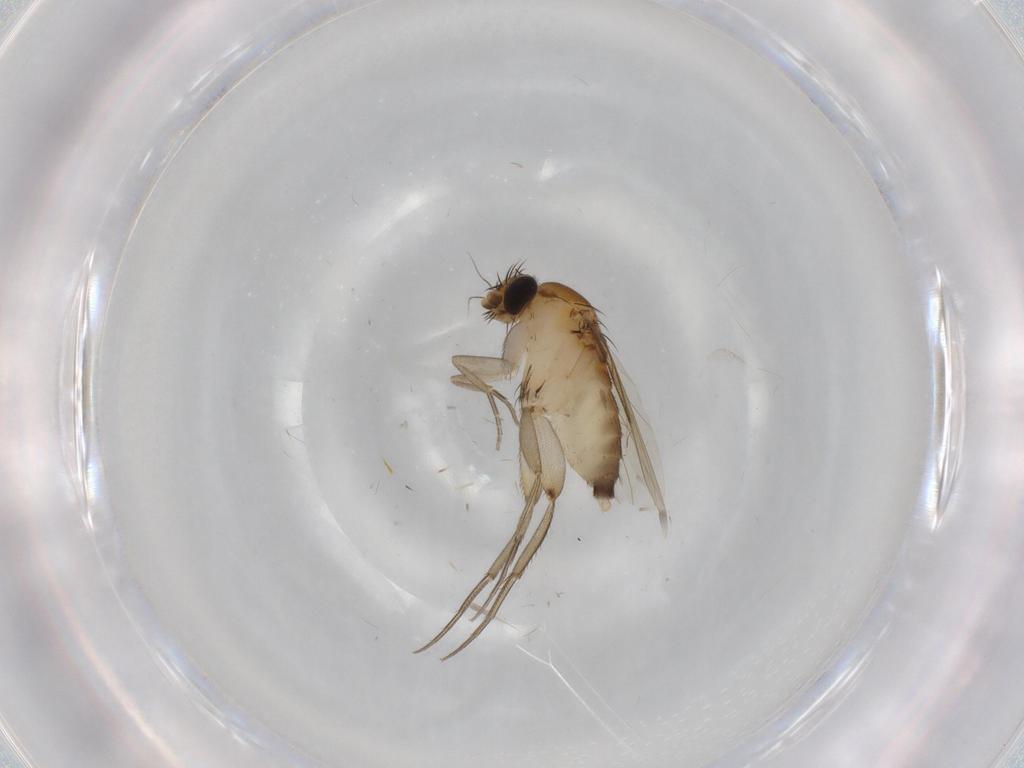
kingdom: Animalia
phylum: Arthropoda
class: Insecta
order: Diptera
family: Phoridae
